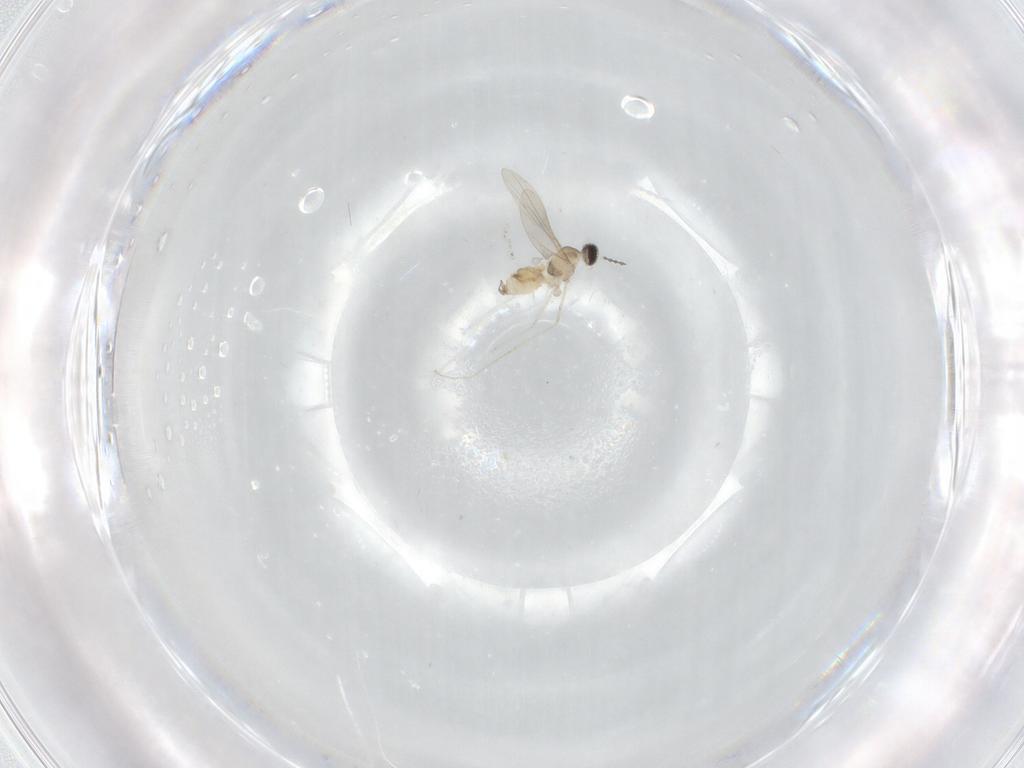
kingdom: Animalia
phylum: Arthropoda
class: Insecta
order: Diptera
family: Cecidomyiidae
